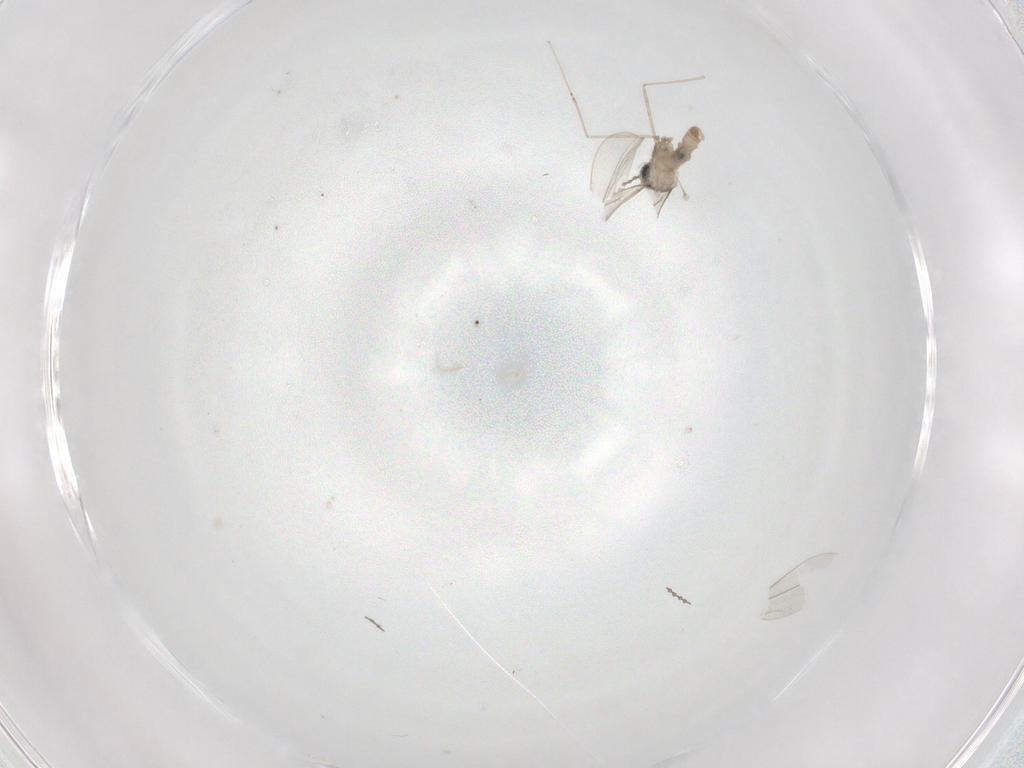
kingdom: Animalia
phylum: Arthropoda
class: Insecta
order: Diptera
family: Cecidomyiidae
